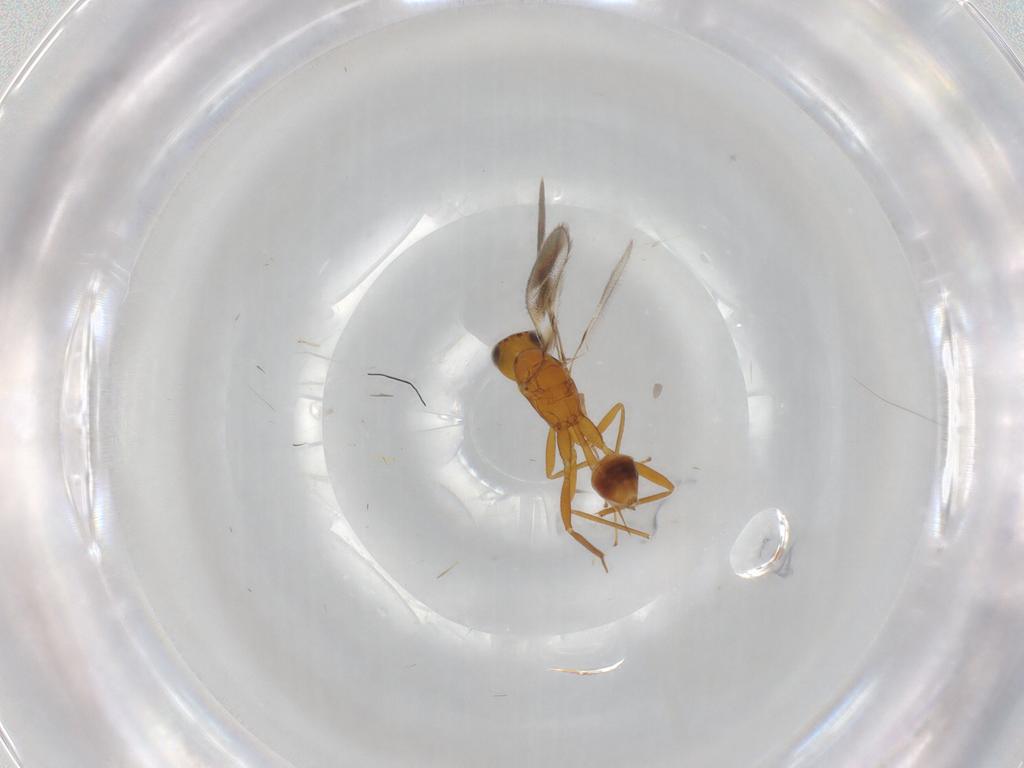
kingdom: Animalia
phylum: Arthropoda
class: Insecta
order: Hymenoptera
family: Mymaridae
